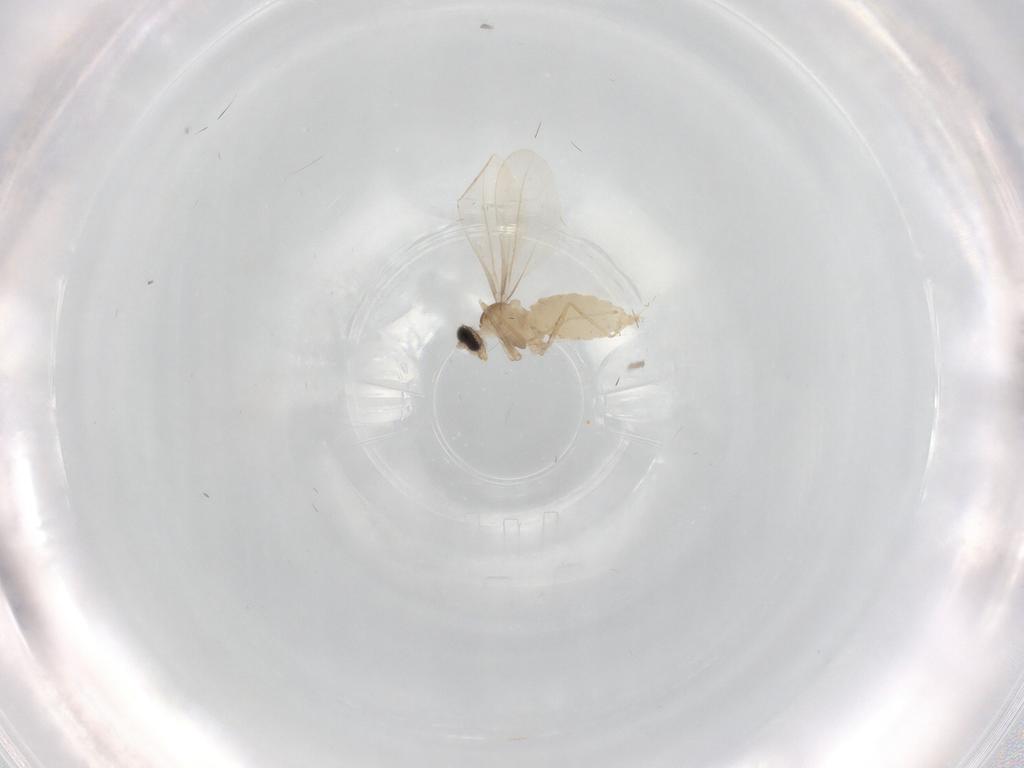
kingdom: Animalia
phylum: Arthropoda
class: Insecta
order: Diptera
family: Cecidomyiidae
